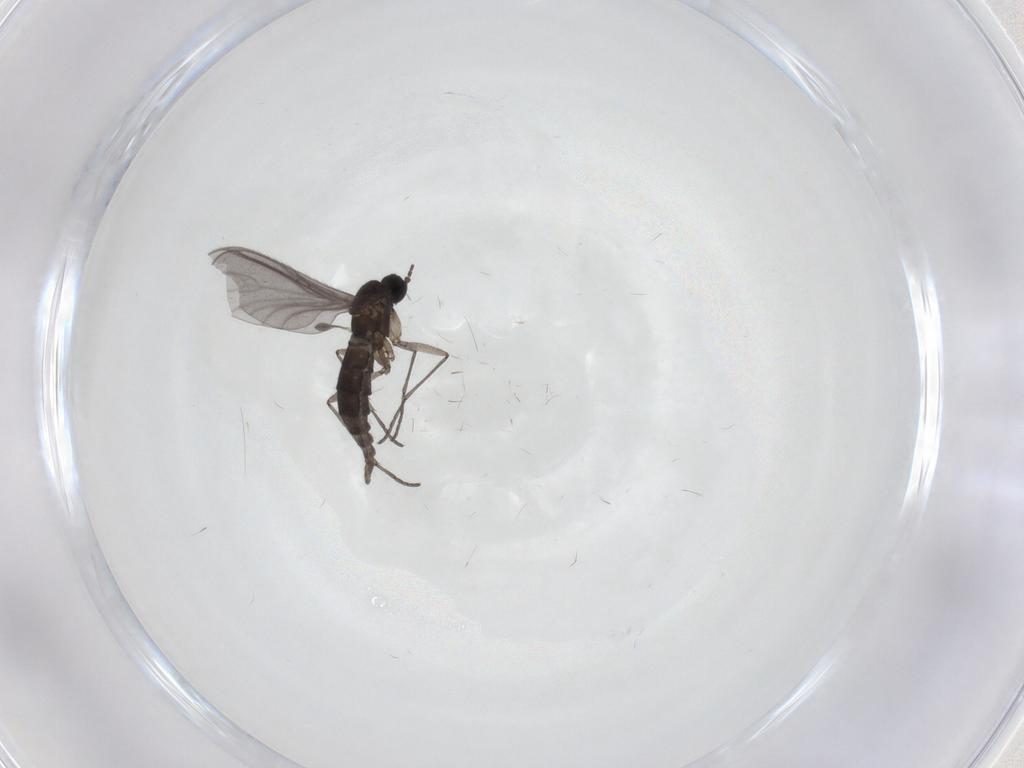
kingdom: Animalia
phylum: Arthropoda
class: Insecta
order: Diptera
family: Sciaridae
